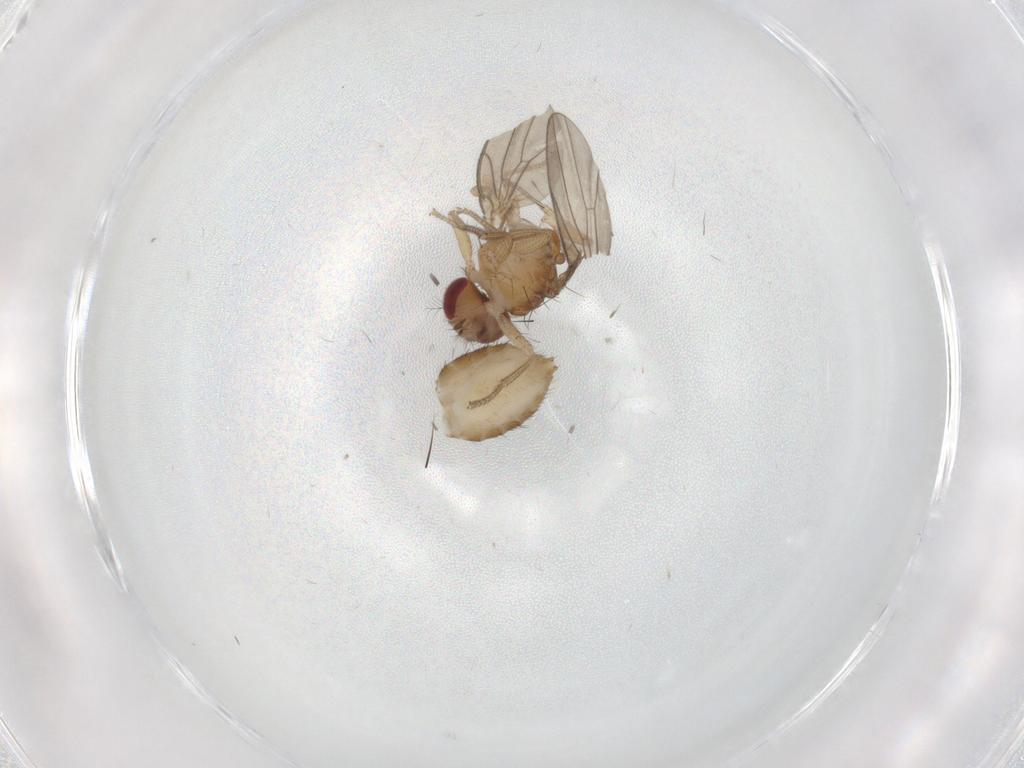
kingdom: Animalia
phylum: Arthropoda
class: Insecta
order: Diptera
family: Drosophilidae
